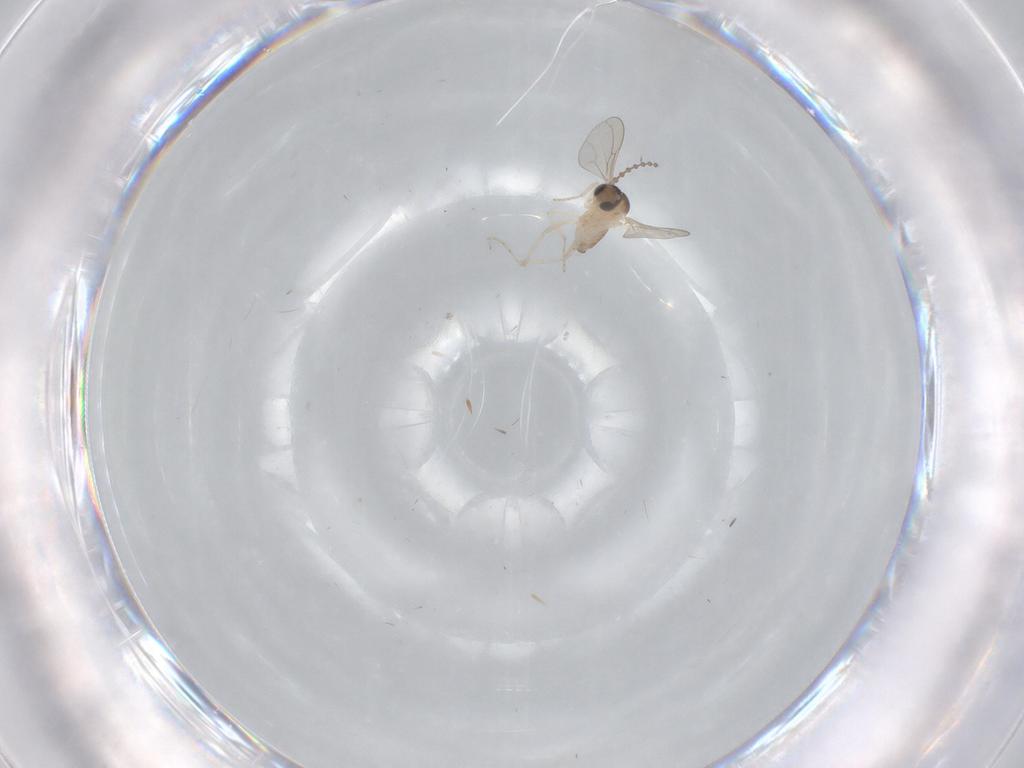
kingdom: Animalia
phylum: Arthropoda
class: Insecta
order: Diptera
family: Cecidomyiidae
